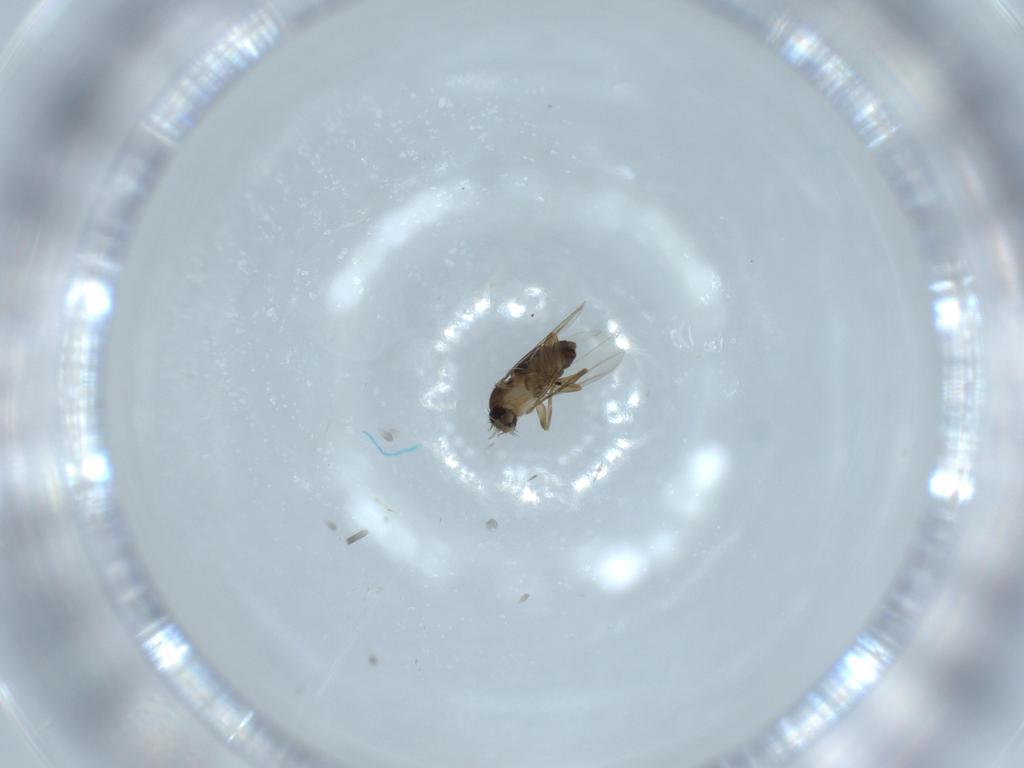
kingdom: Animalia
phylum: Arthropoda
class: Insecta
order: Diptera
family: Phoridae
